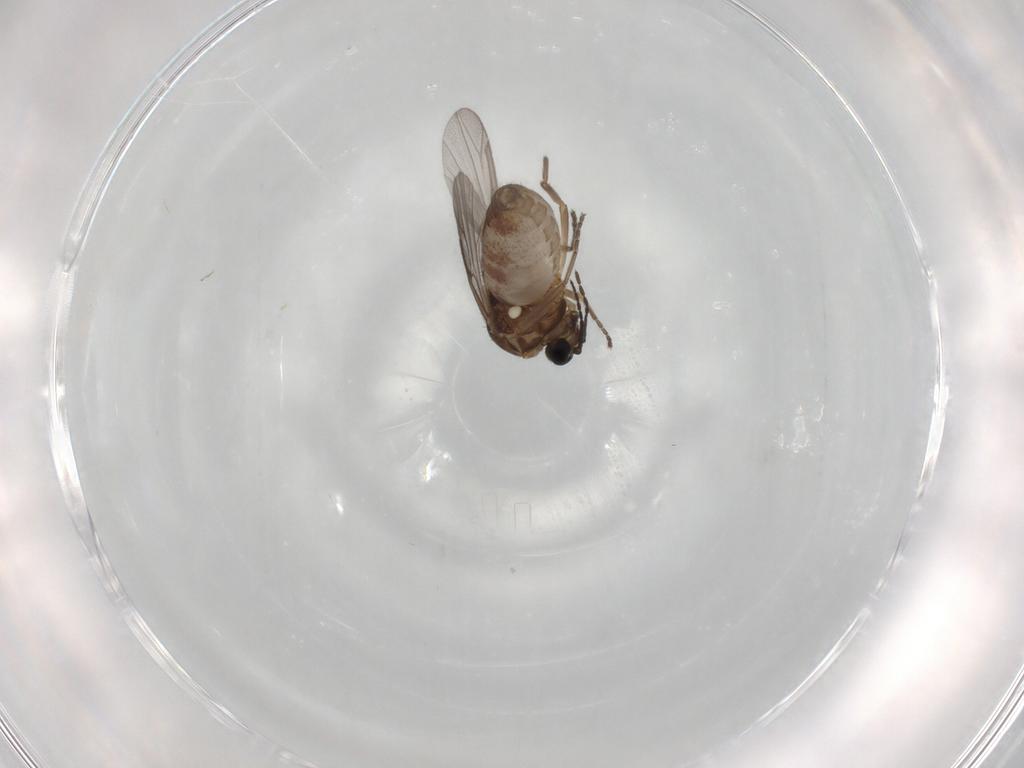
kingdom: Animalia
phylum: Arthropoda
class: Insecta
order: Diptera
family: Ceratopogonidae
